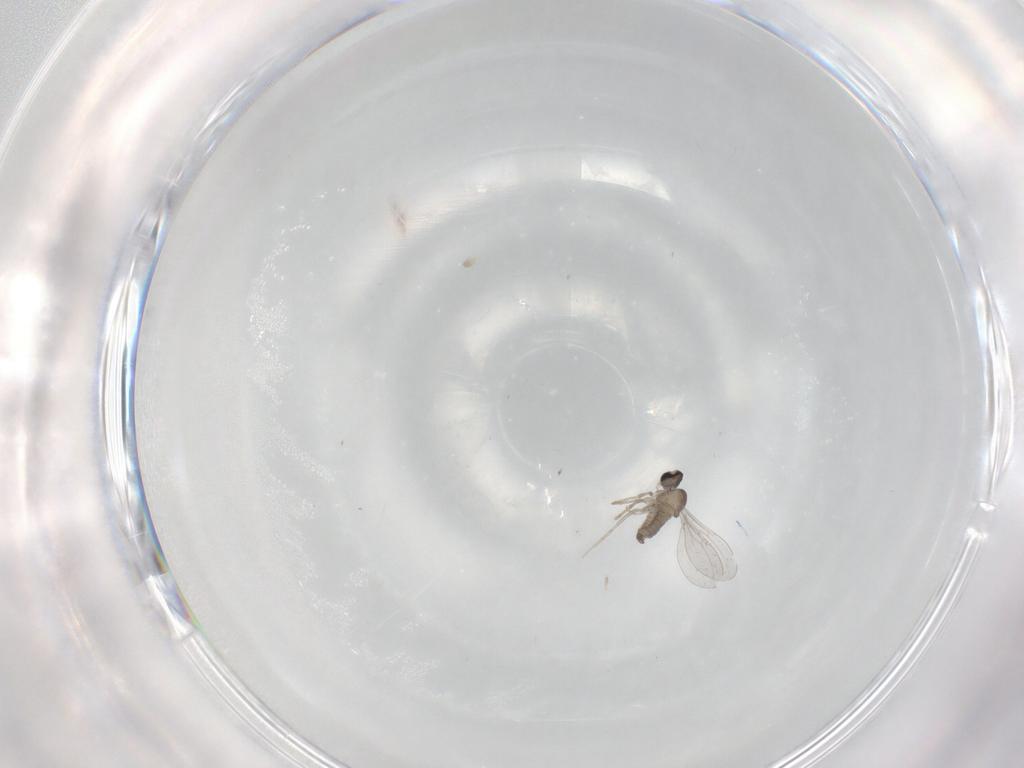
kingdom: Animalia
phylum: Arthropoda
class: Insecta
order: Diptera
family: Cecidomyiidae
